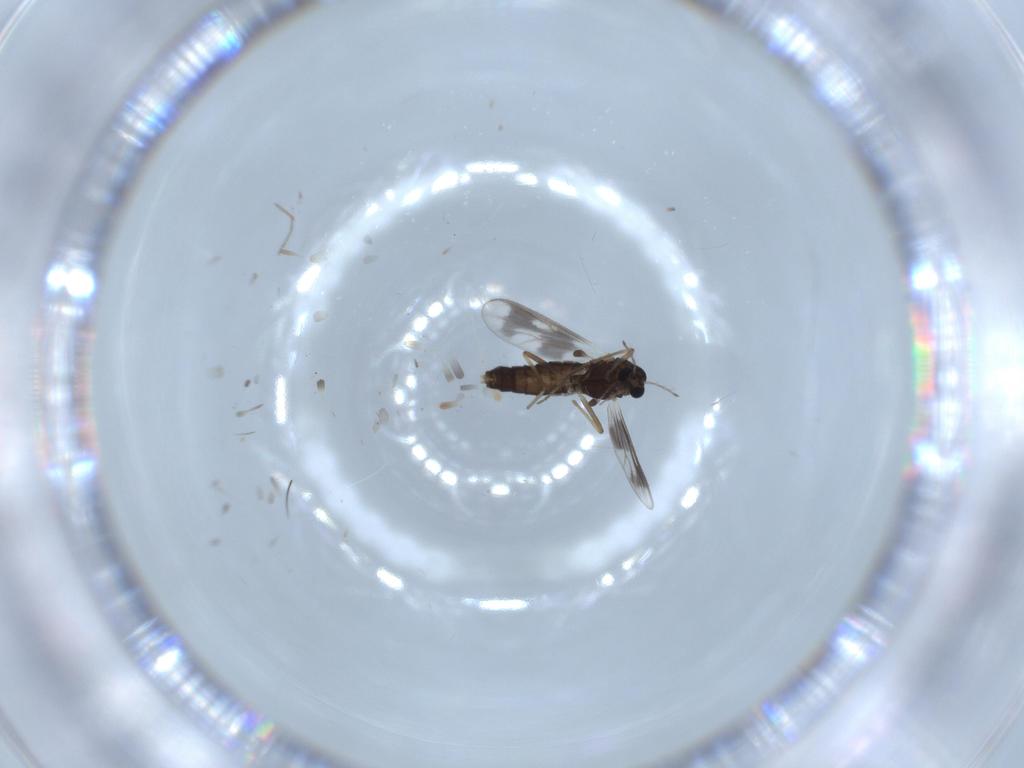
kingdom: Animalia
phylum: Arthropoda
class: Insecta
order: Diptera
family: Chironomidae
